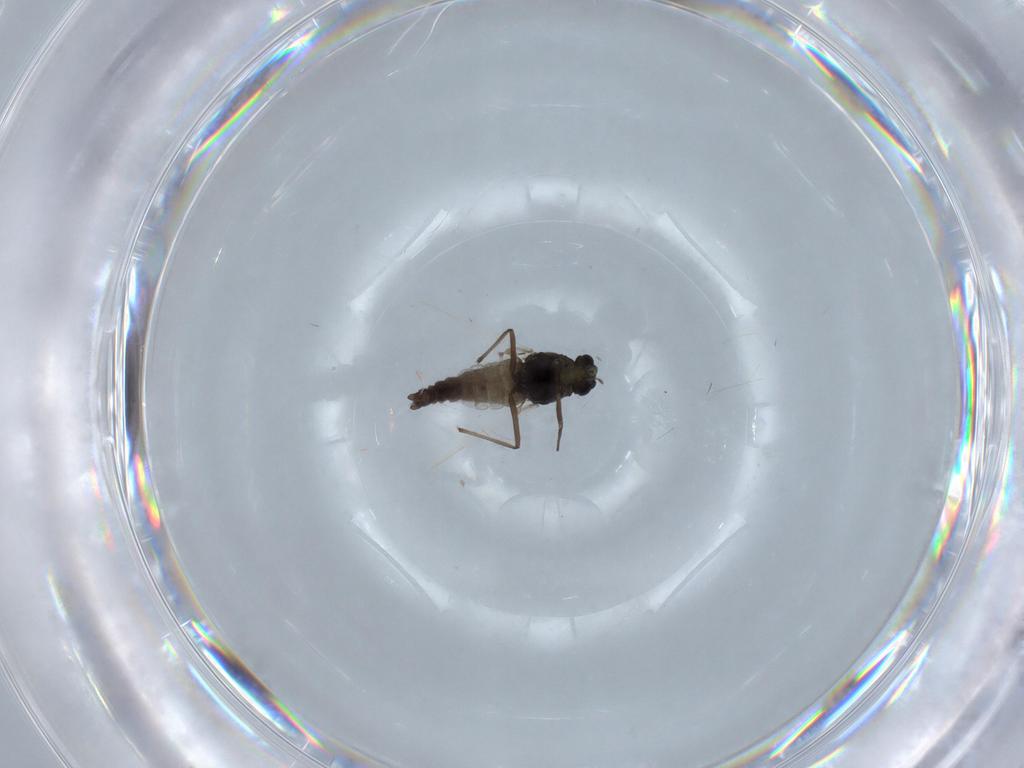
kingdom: Animalia
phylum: Arthropoda
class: Insecta
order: Diptera
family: Chironomidae
